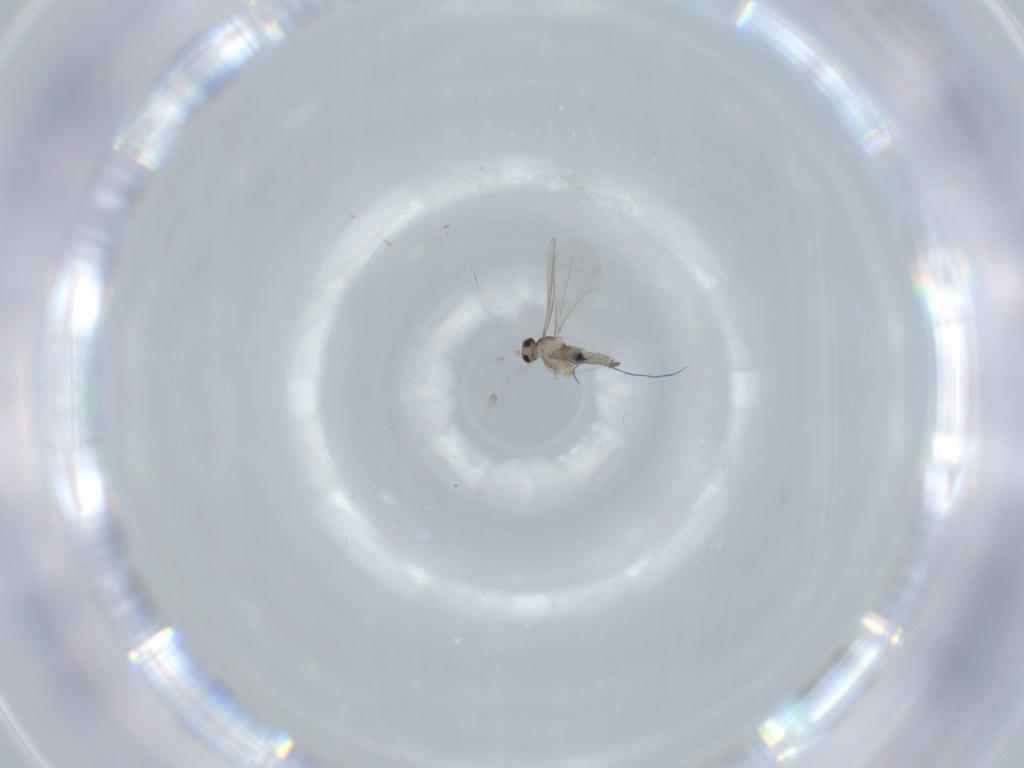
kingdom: Animalia
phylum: Arthropoda
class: Insecta
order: Diptera
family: Cecidomyiidae
